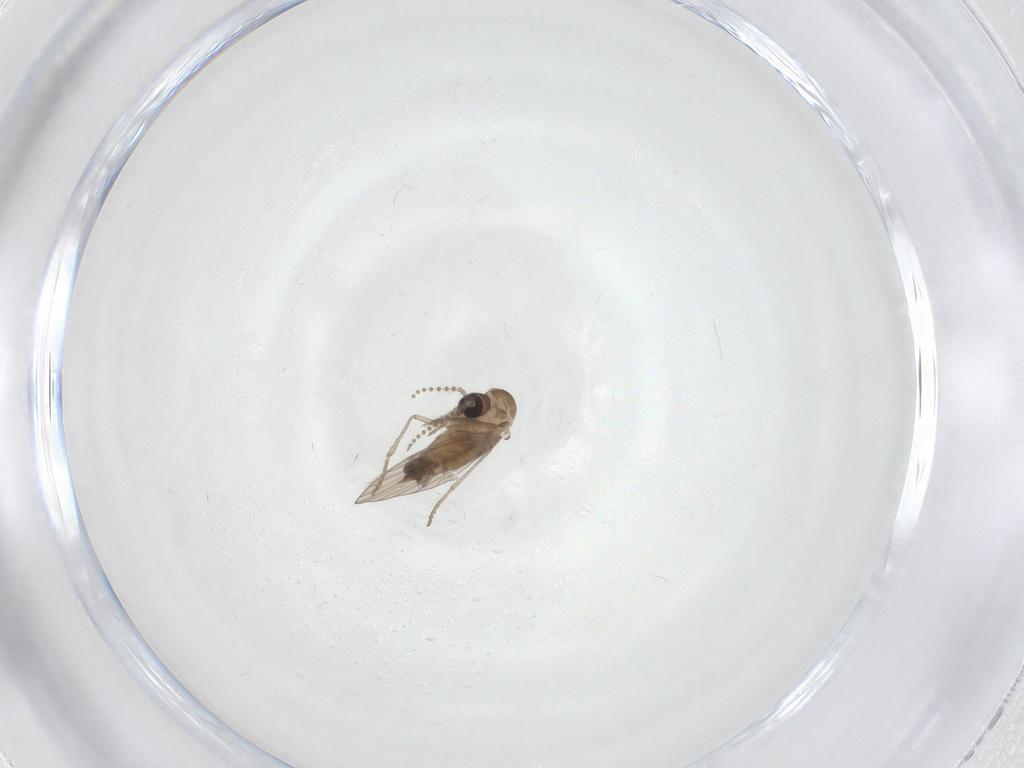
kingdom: Animalia
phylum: Arthropoda
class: Insecta
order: Diptera
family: Psychodidae
